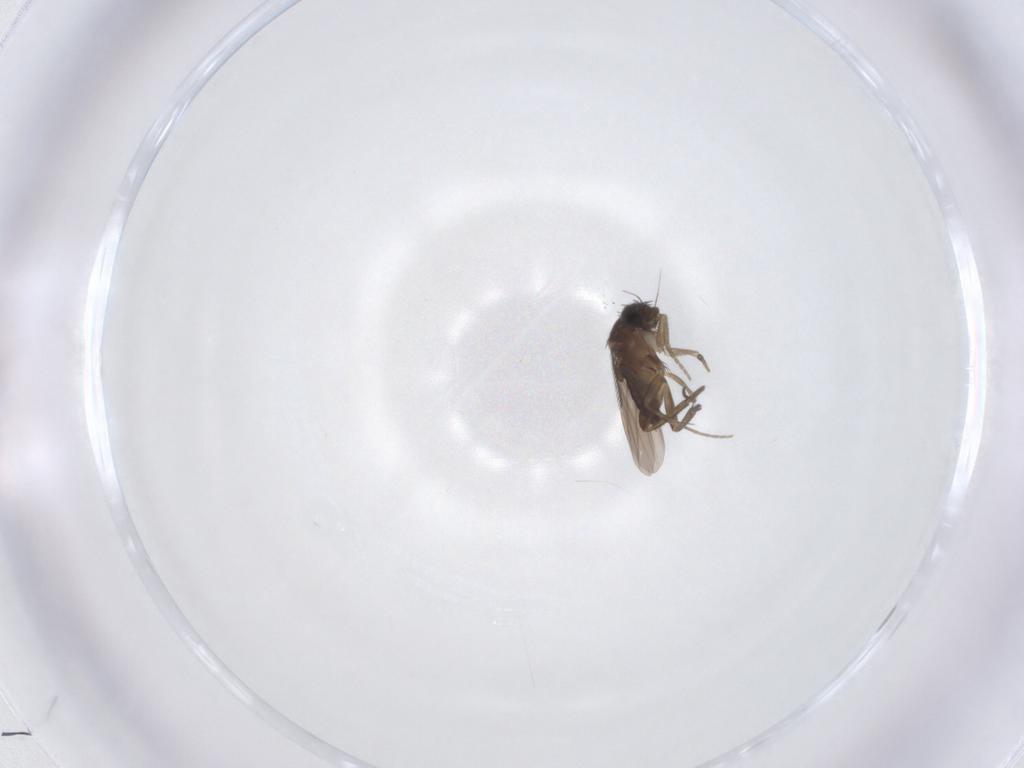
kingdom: Animalia
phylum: Arthropoda
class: Insecta
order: Diptera
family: Phoridae
